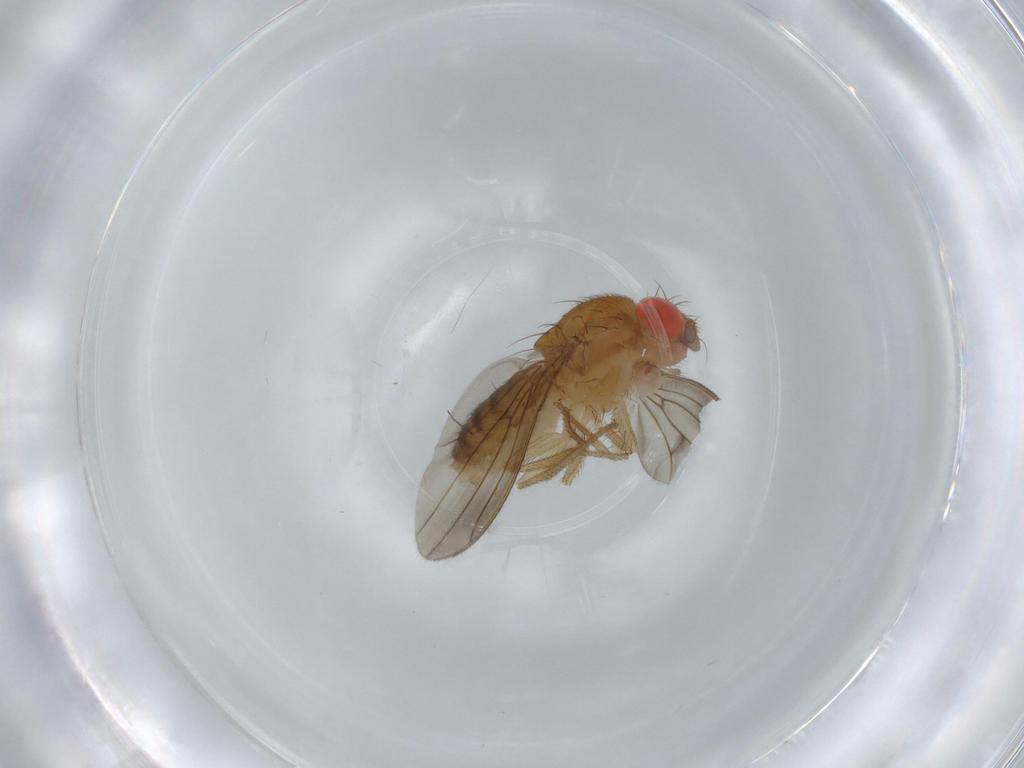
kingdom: Animalia
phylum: Arthropoda
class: Insecta
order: Diptera
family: Drosophilidae
